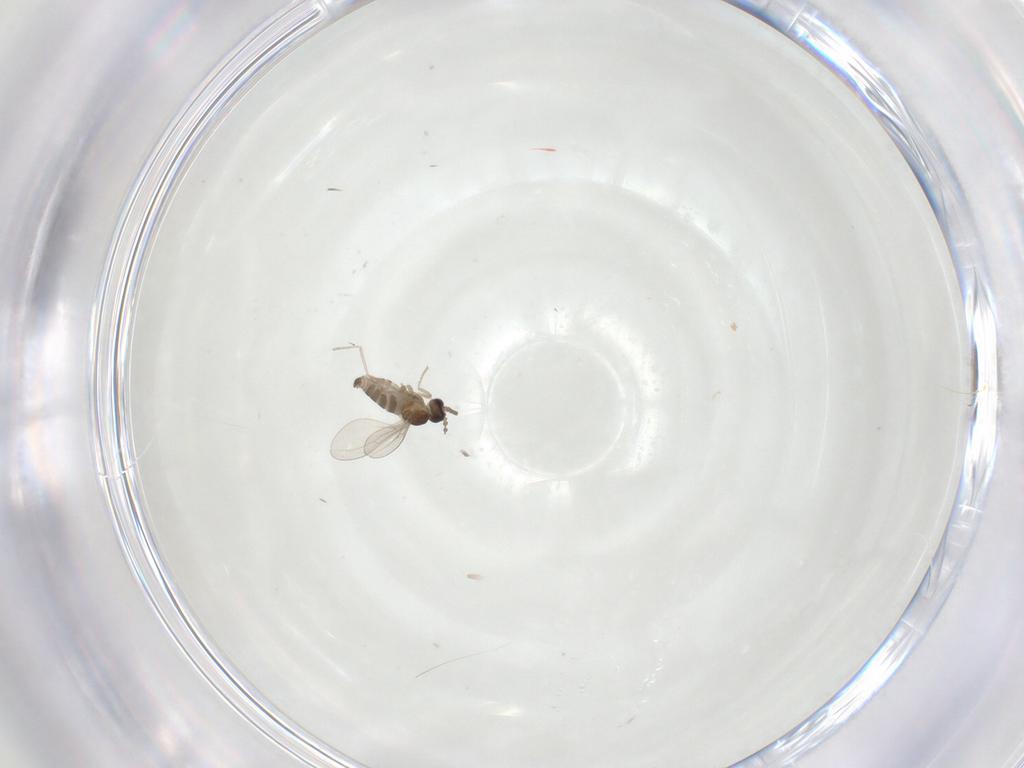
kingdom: Animalia
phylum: Arthropoda
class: Insecta
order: Diptera
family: Cecidomyiidae
